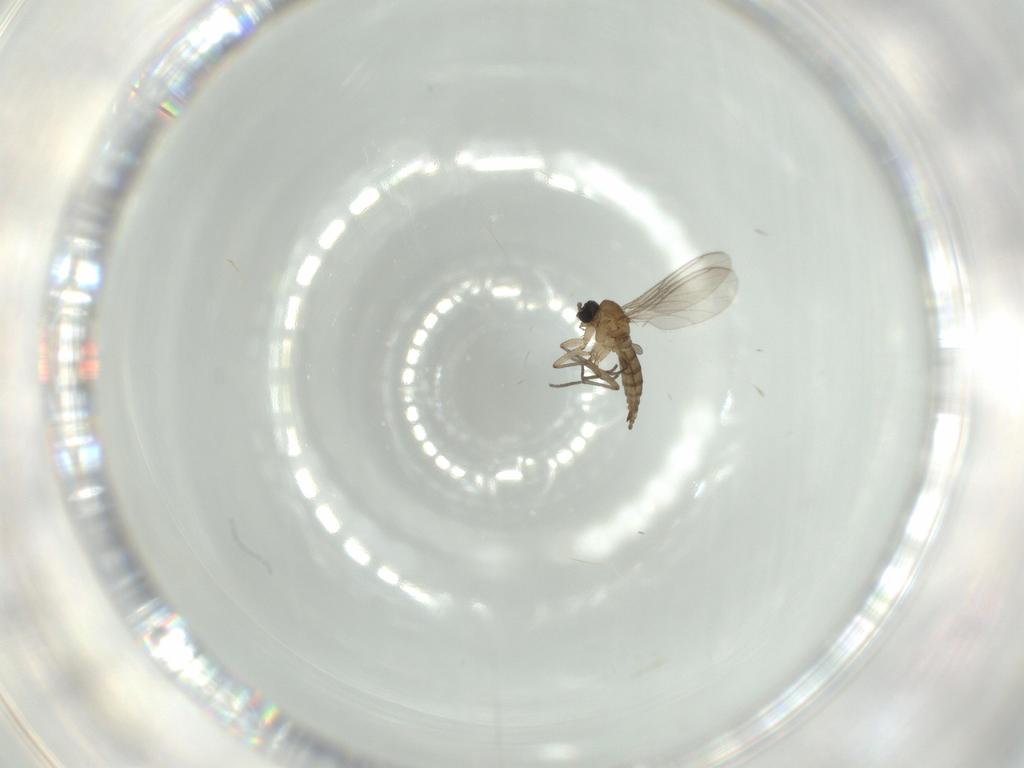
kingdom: Animalia
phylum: Arthropoda
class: Insecta
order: Diptera
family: Sciaridae
